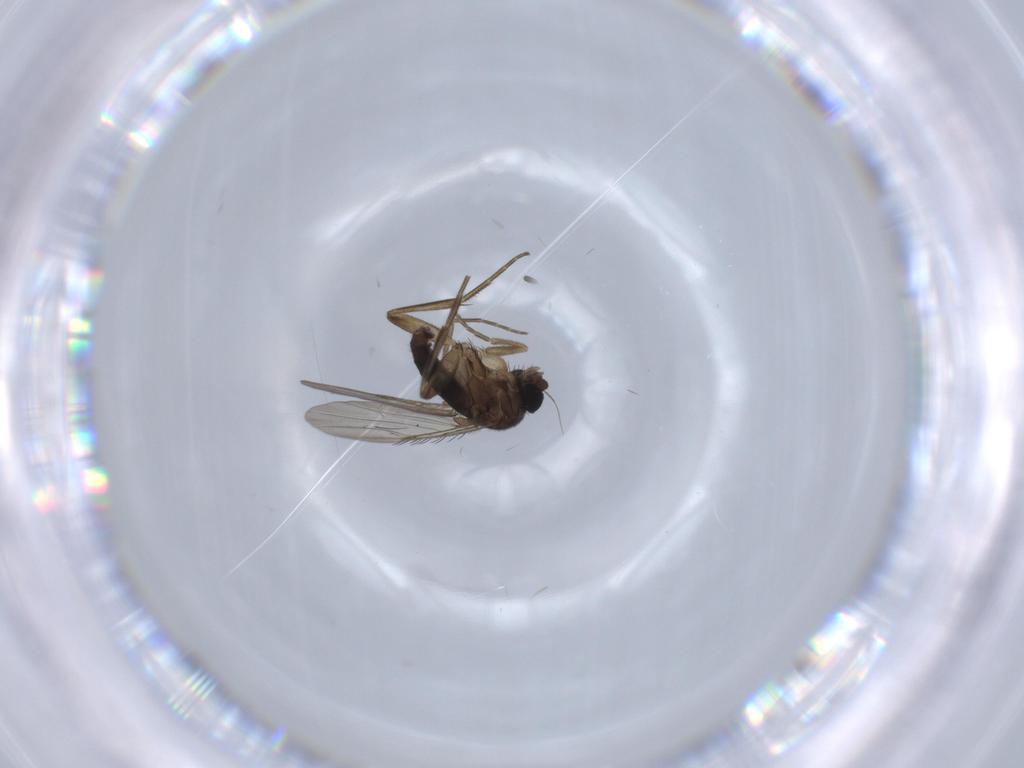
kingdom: Animalia
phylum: Arthropoda
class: Insecta
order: Diptera
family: Phoridae
